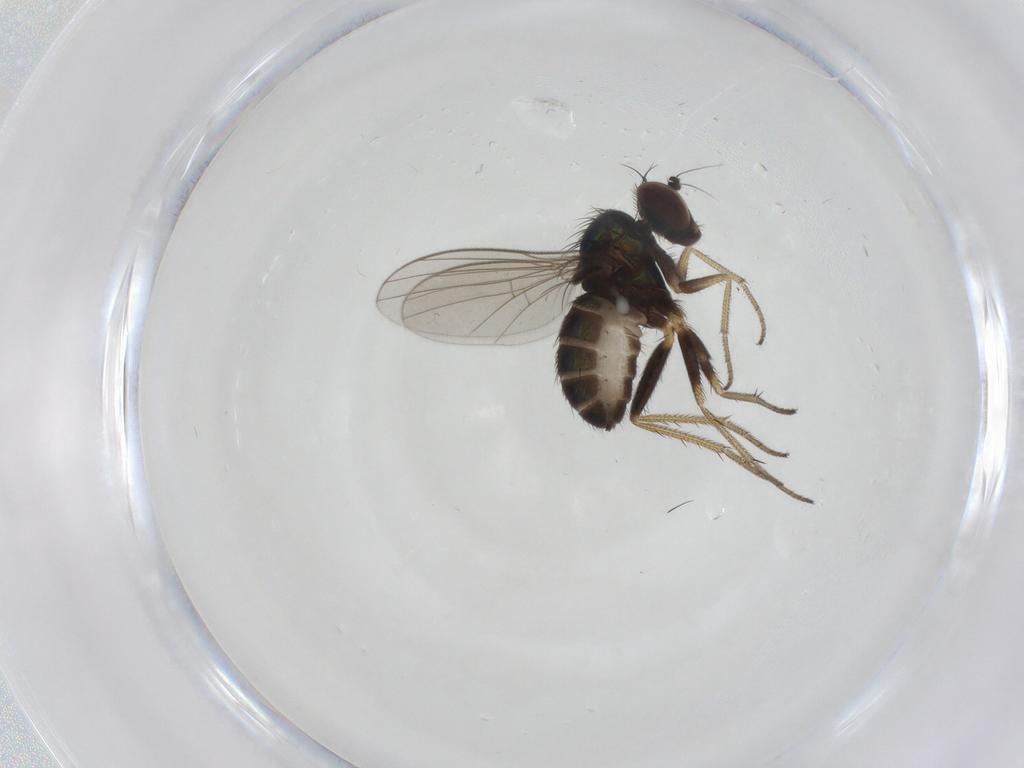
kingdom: Animalia
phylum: Arthropoda
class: Insecta
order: Diptera
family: Dolichopodidae
